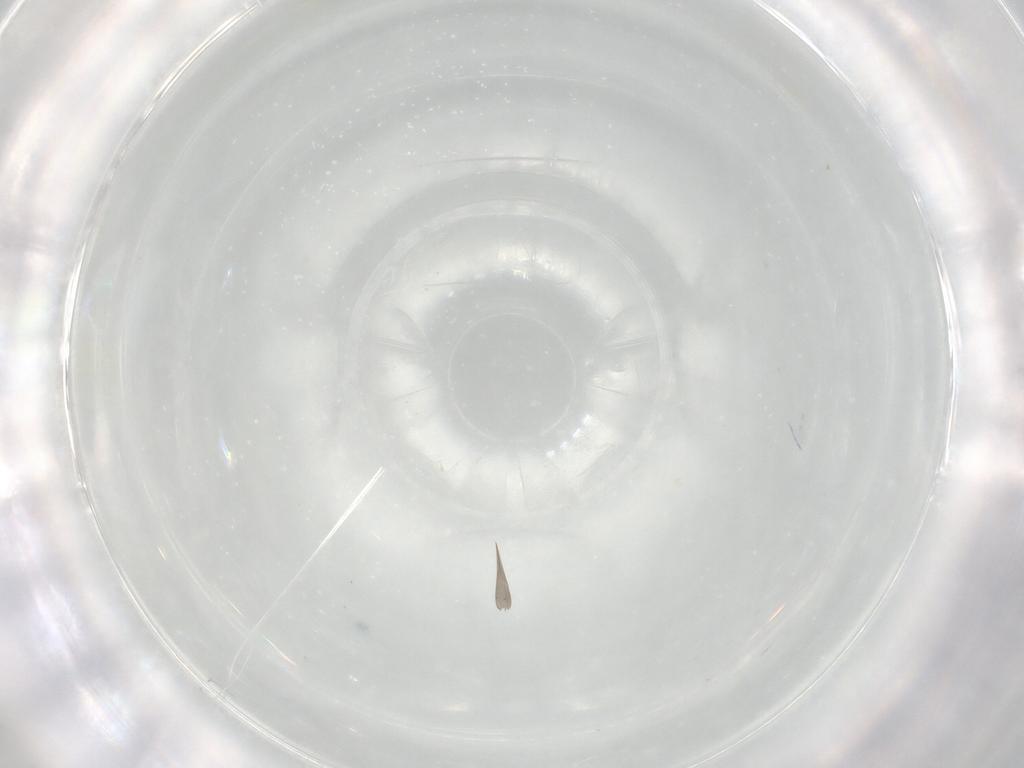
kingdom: Animalia
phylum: Arthropoda
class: Arachnida
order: Araneae
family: Sparassidae
